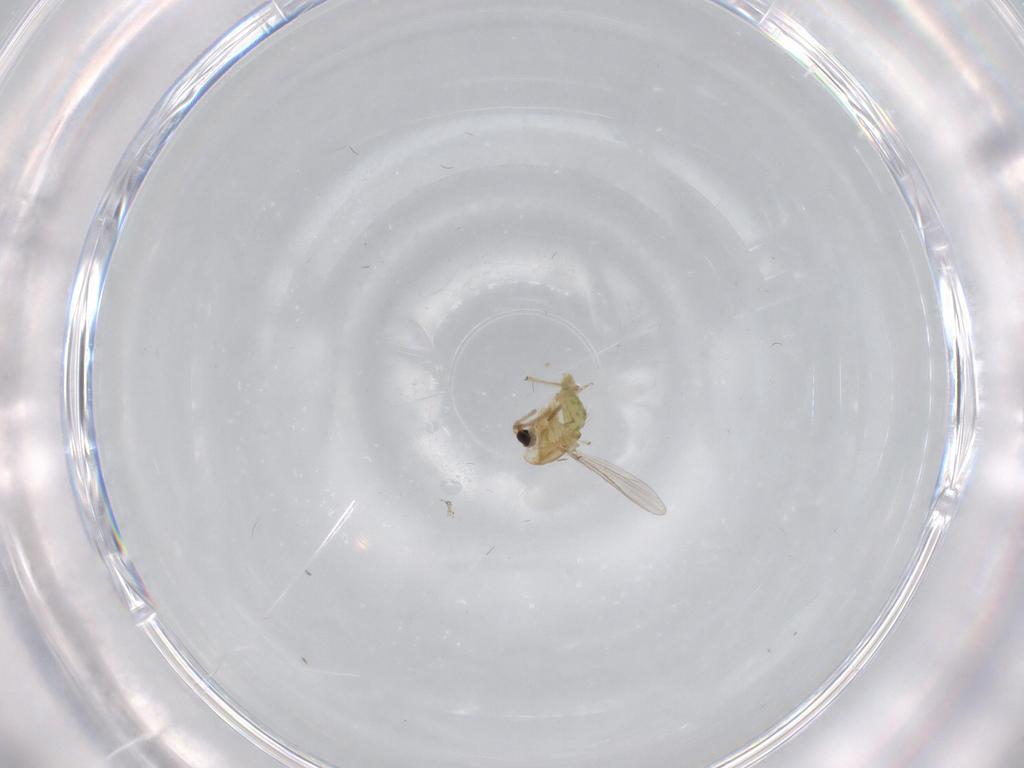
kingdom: Animalia
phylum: Arthropoda
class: Insecta
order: Diptera
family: Chironomidae
